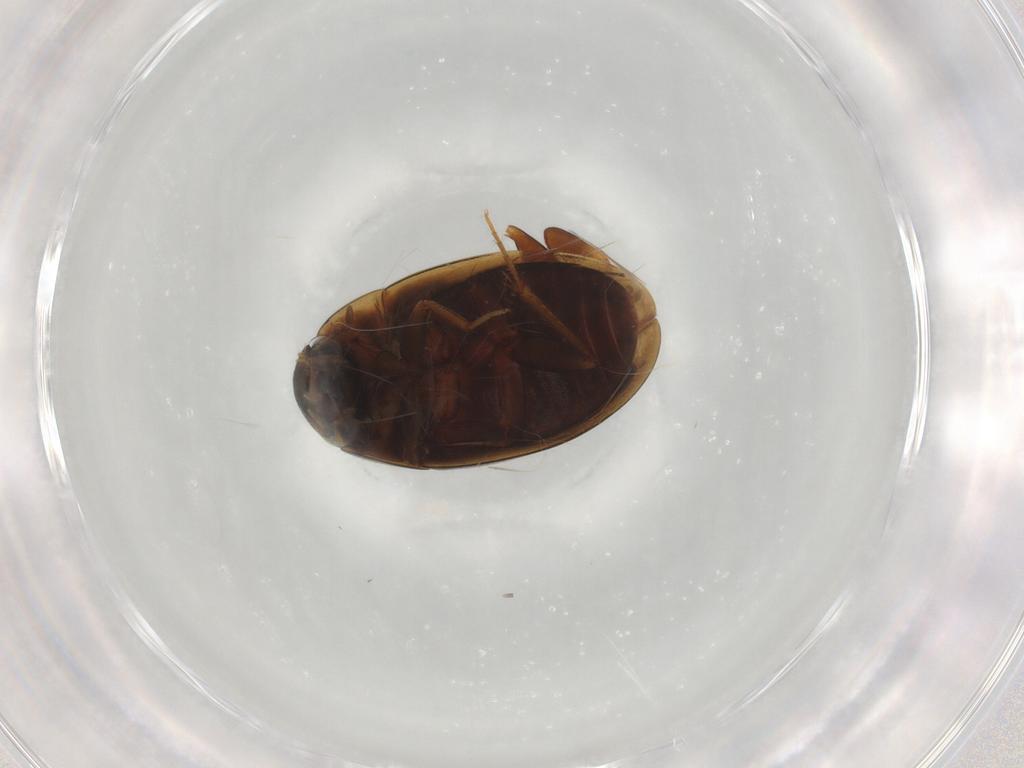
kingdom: Animalia
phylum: Arthropoda
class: Insecta
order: Coleoptera
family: Hydrophilidae
